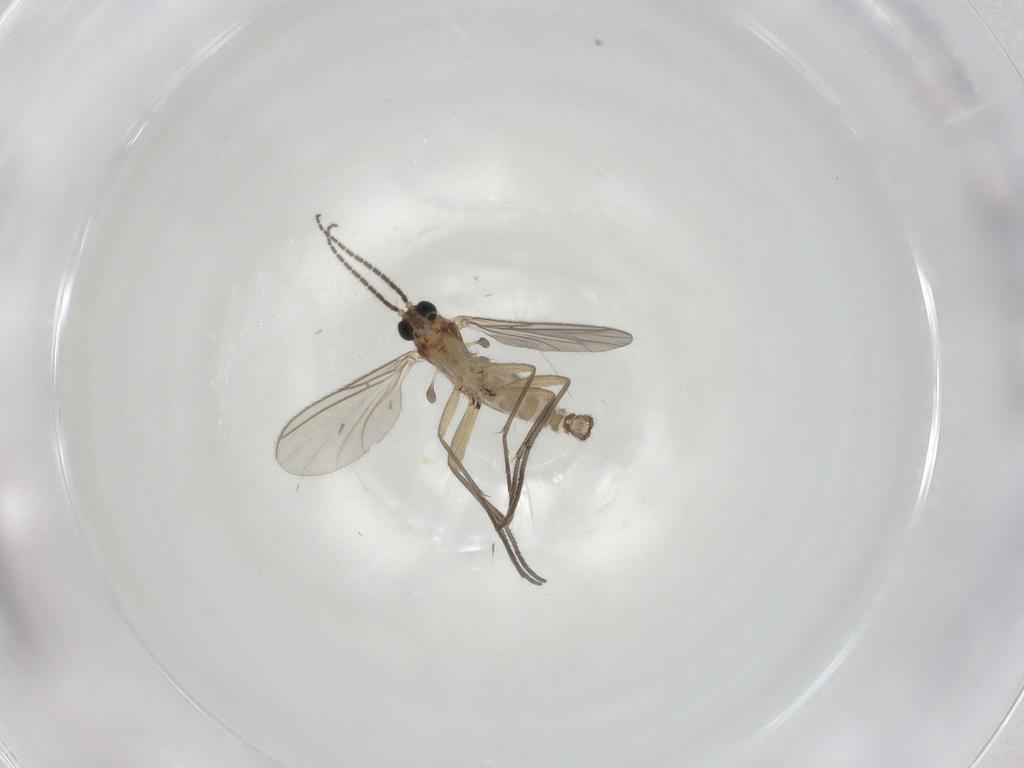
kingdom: Animalia
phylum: Arthropoda
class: Insecta
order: Diptera
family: Sciaridae
